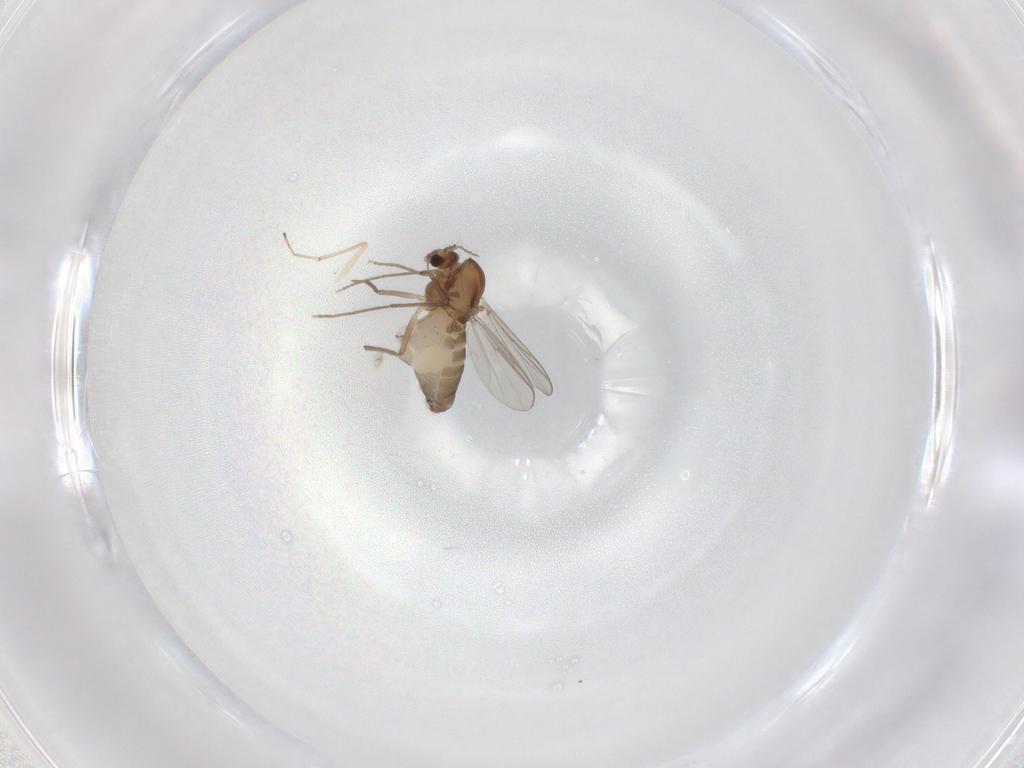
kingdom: Animalia
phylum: Arthropoda
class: Insecta
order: Diptera
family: Chironomidae
